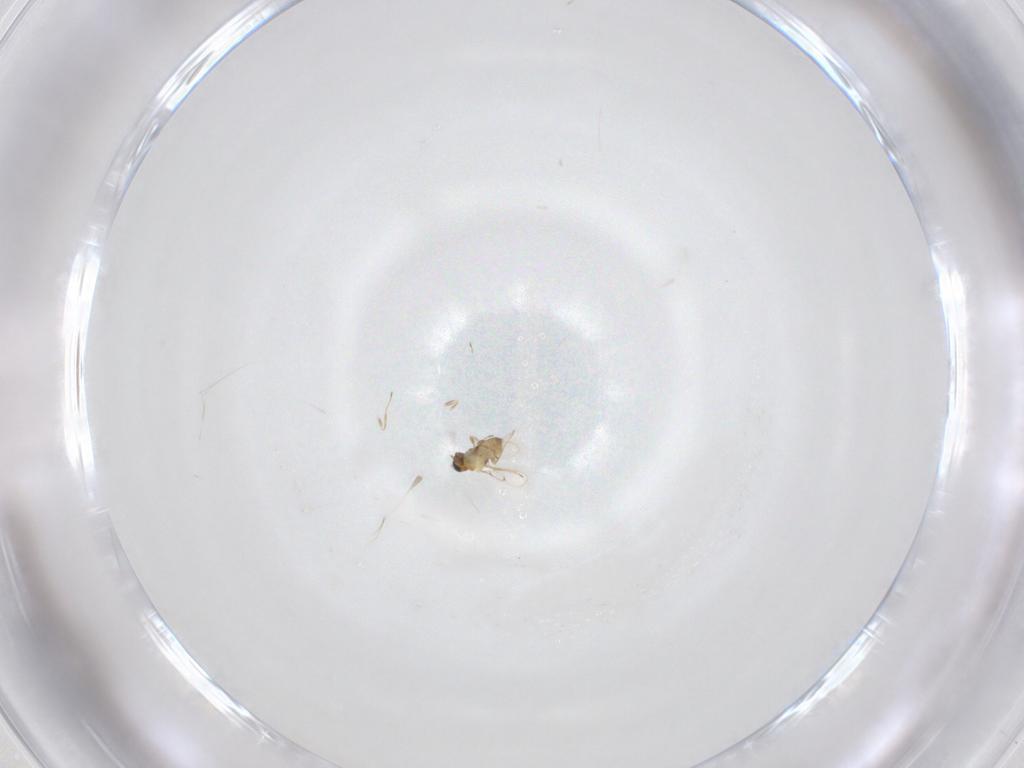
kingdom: Animalia
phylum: Arthropoda
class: Insecta
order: Hymenoptera
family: Trichogrammatidae
